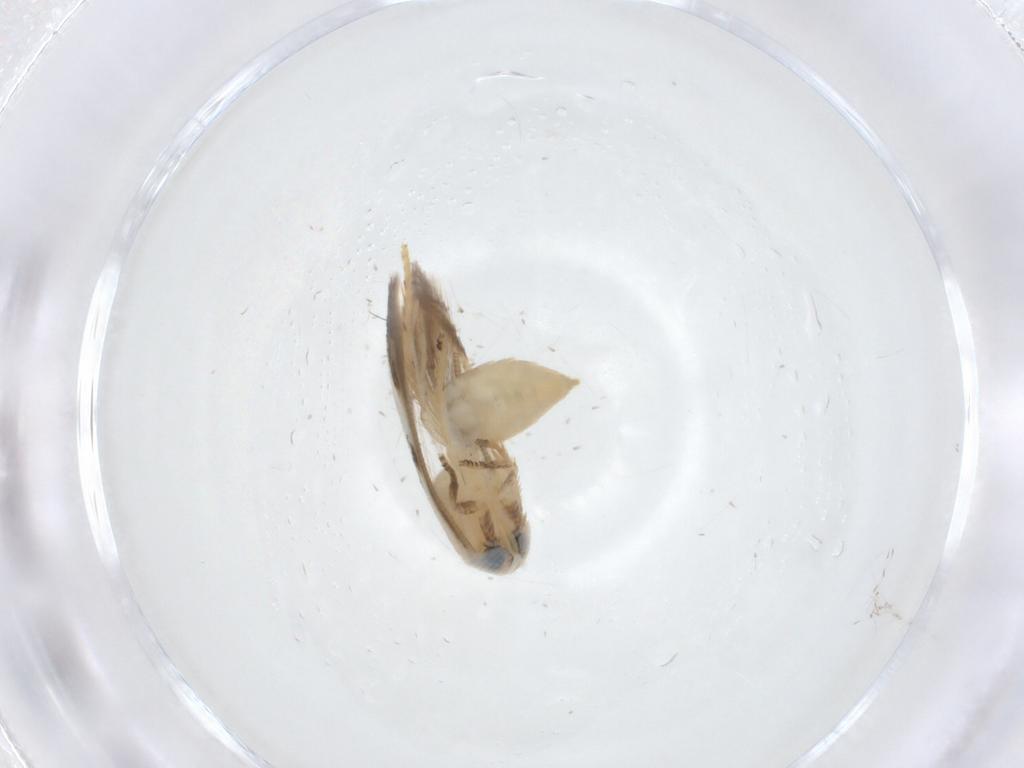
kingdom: Animalia
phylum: Arthropoda
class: Insecta
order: Lepidoptera
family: Opostegidae
